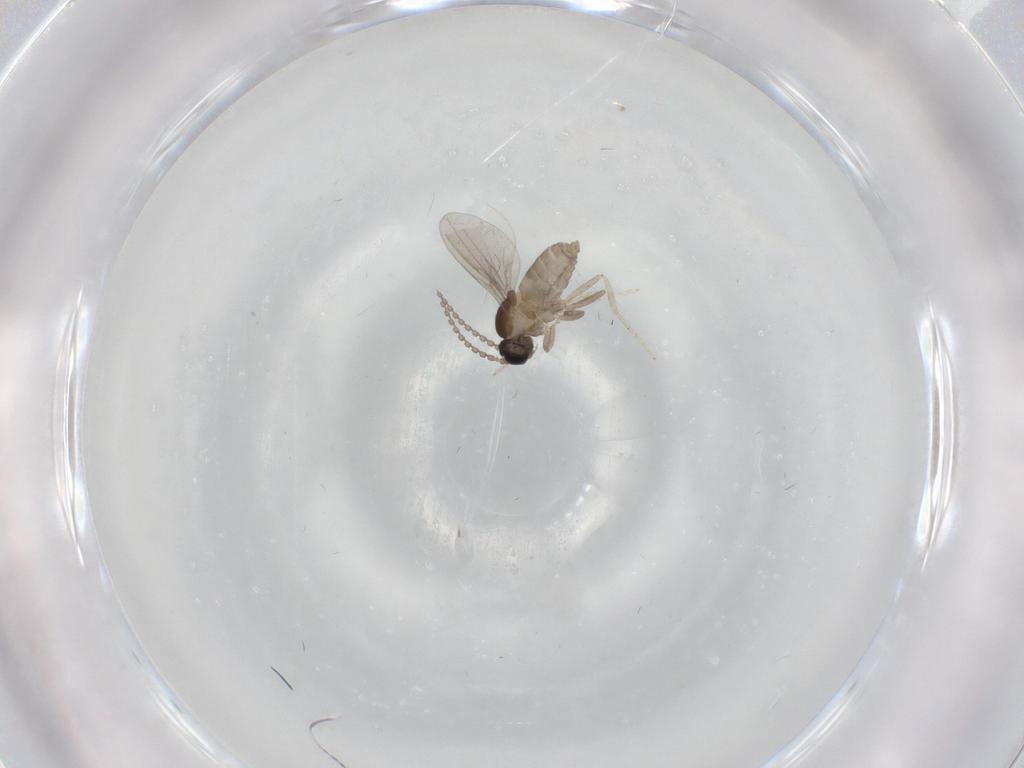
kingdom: Animalia
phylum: Arthropoda
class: Insecta
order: Diptera
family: Cecidomyiidae
